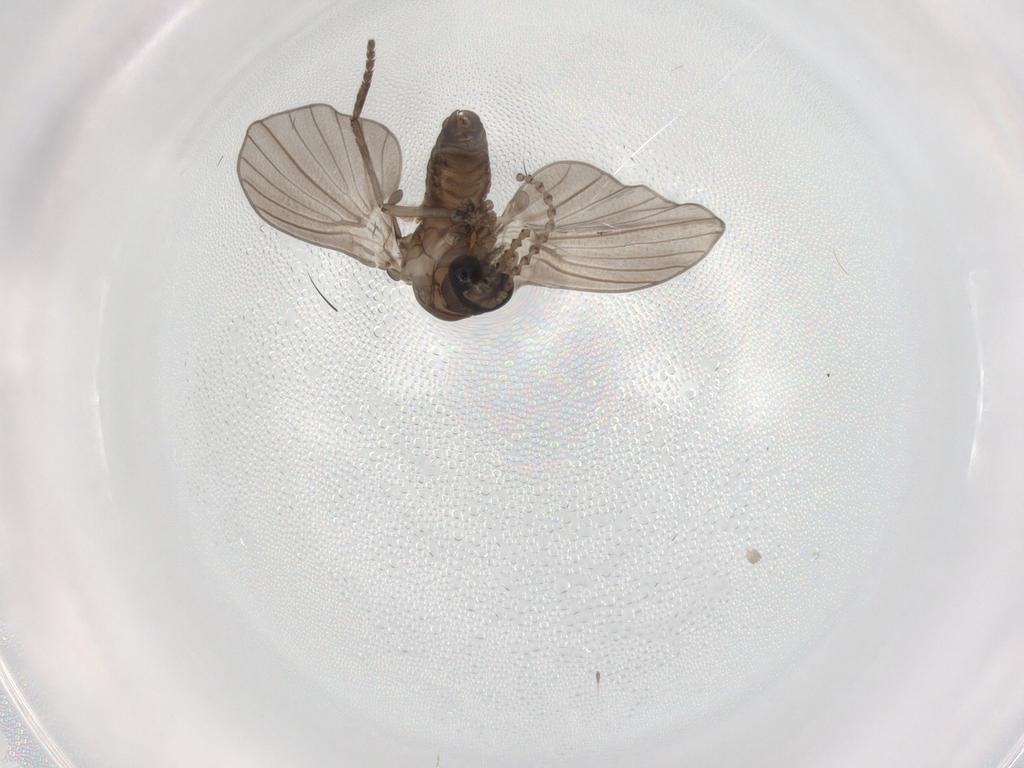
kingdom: Animalia
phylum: Arthropoda
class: Insecta
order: Diptera
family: Psychodidae
